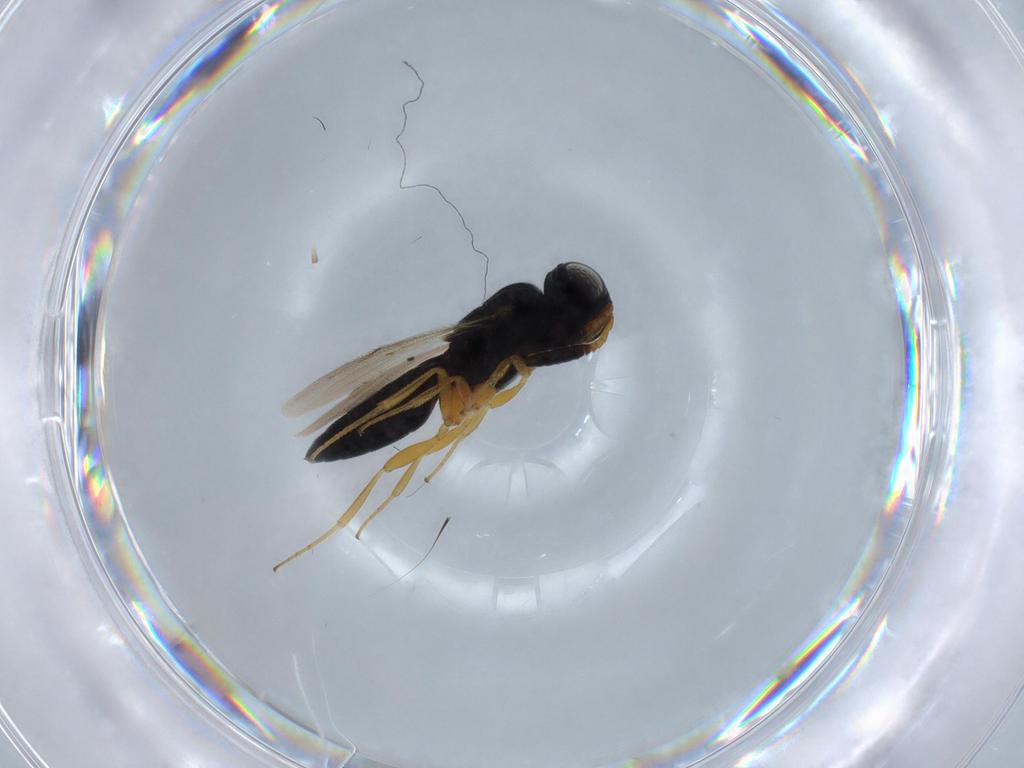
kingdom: Animalia
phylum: Arthropoda
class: Insecta
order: Hymenoptera
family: Scelionidae
